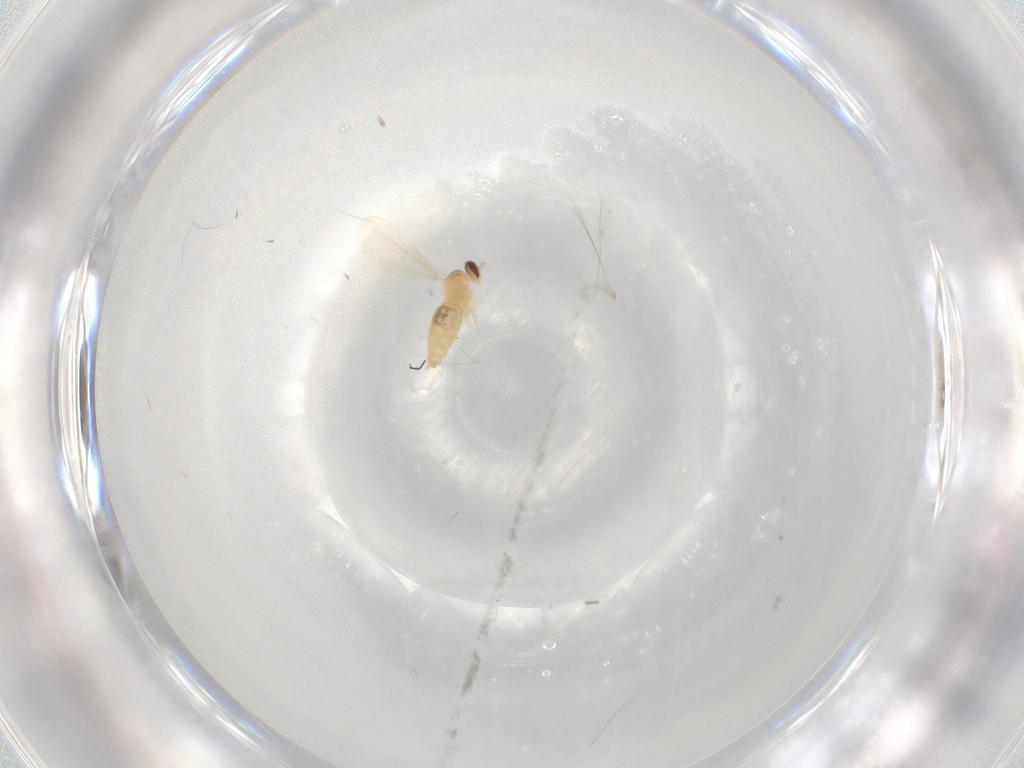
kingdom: Animalia
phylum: Arthropoda
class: Insecta
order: Diptera
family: Cecidomyiidae
